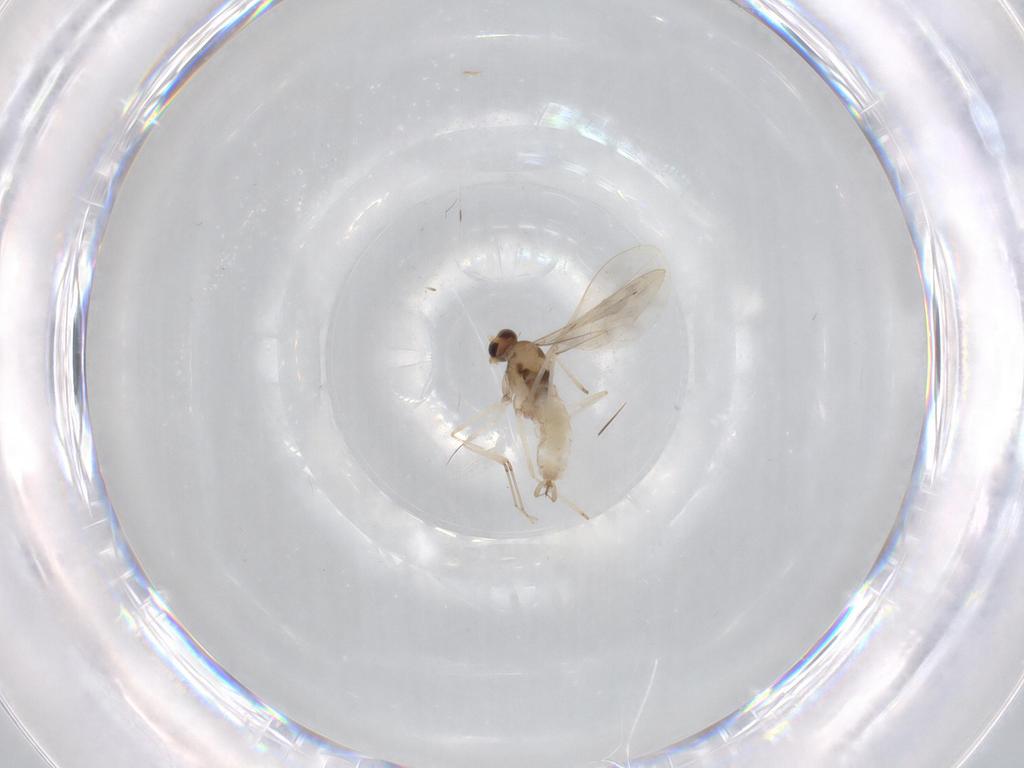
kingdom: Animalia
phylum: Arthropoda
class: Insecta
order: Diptera
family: Cecidomyiidae
